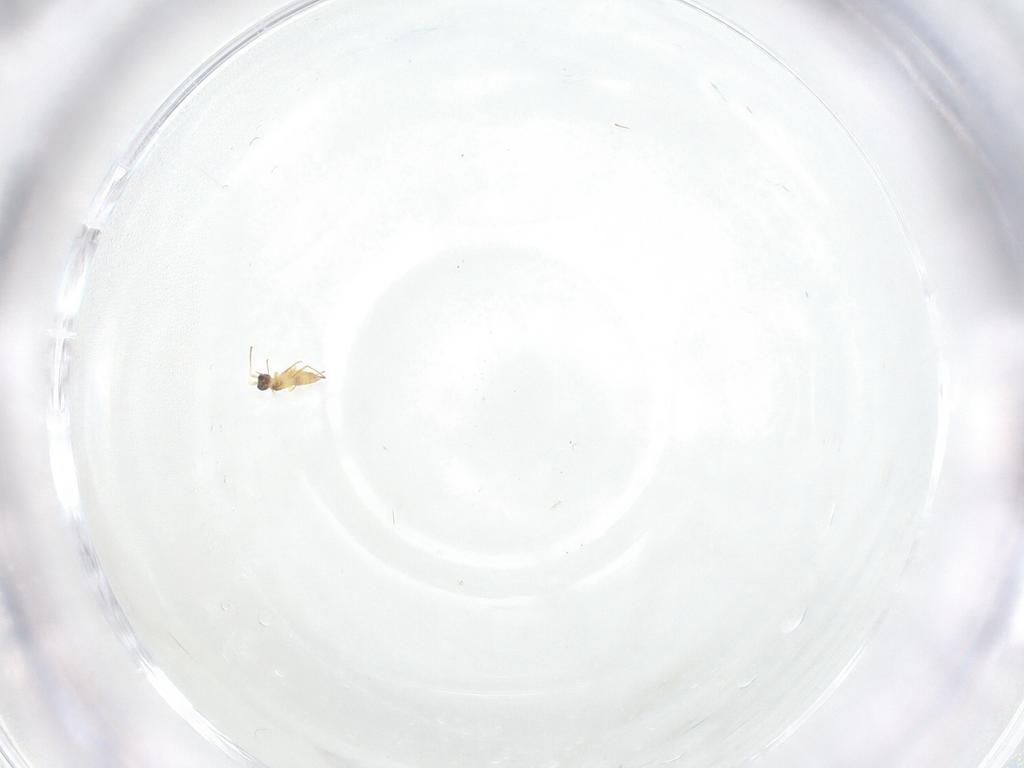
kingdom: Animalia
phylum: Arthropoda
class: Insecta
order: Hymenoptera
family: Mymaridae
